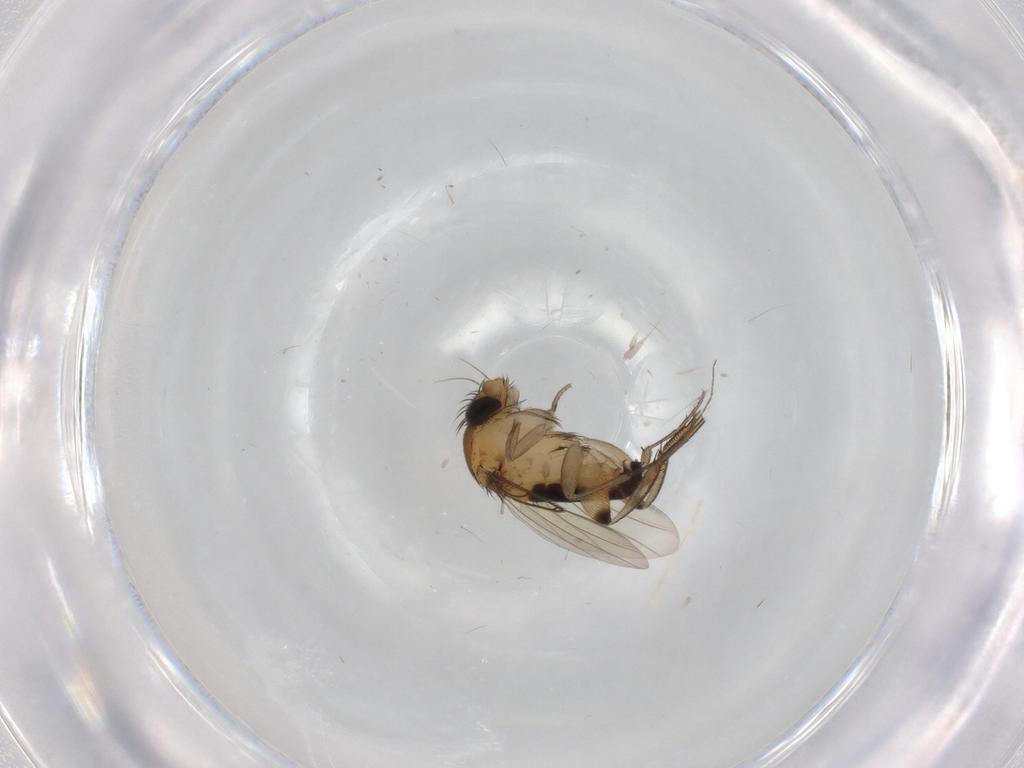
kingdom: Animalia
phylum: Arthropoda
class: Insecta
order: Diptera
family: Phoridae
